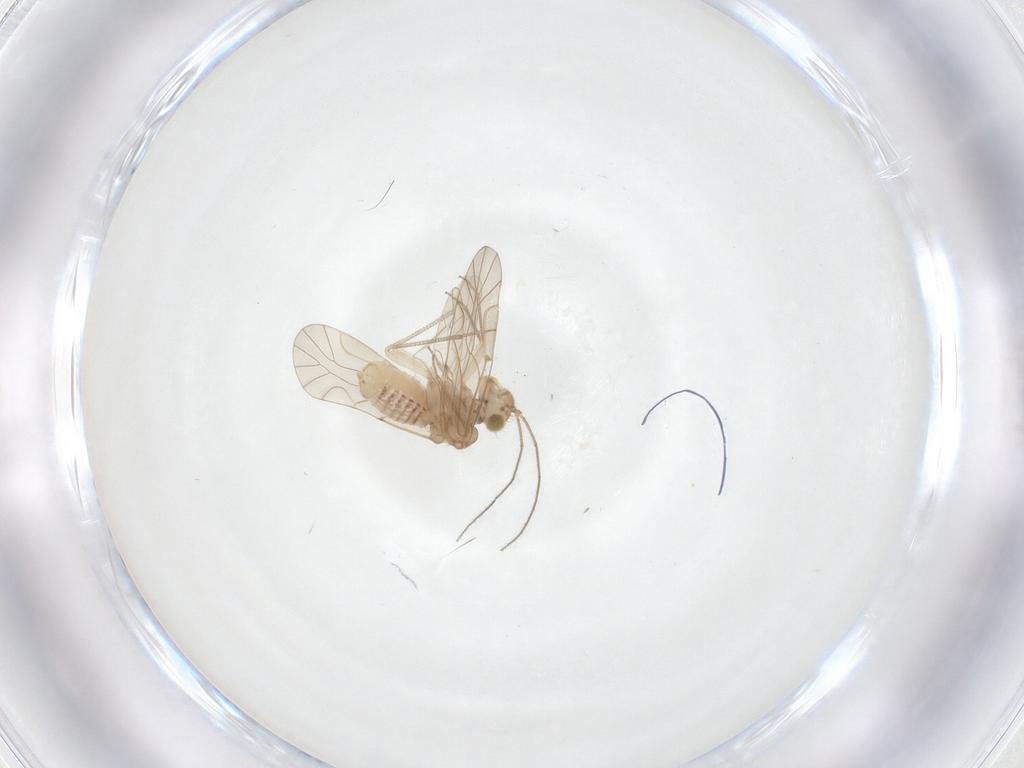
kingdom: Animalia
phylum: Arthropoda
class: Insecta
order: Psocodea
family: Lachesillidae
